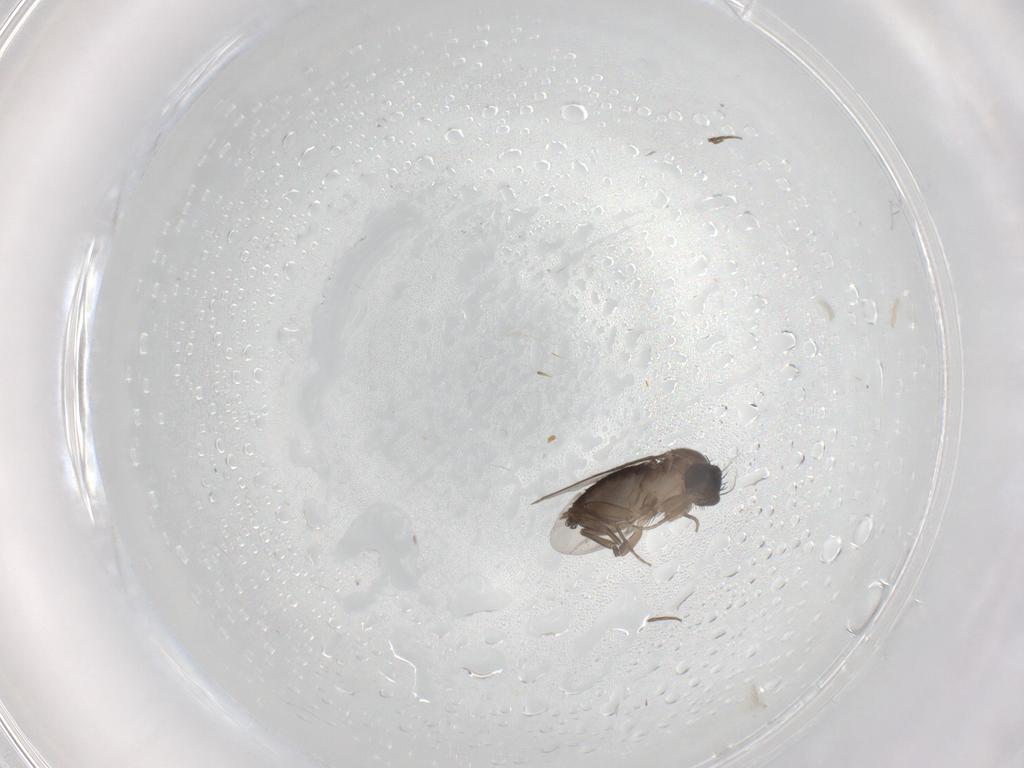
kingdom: Animalia
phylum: Arthropoda
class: Insecta
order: Diptera
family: Phoridae
